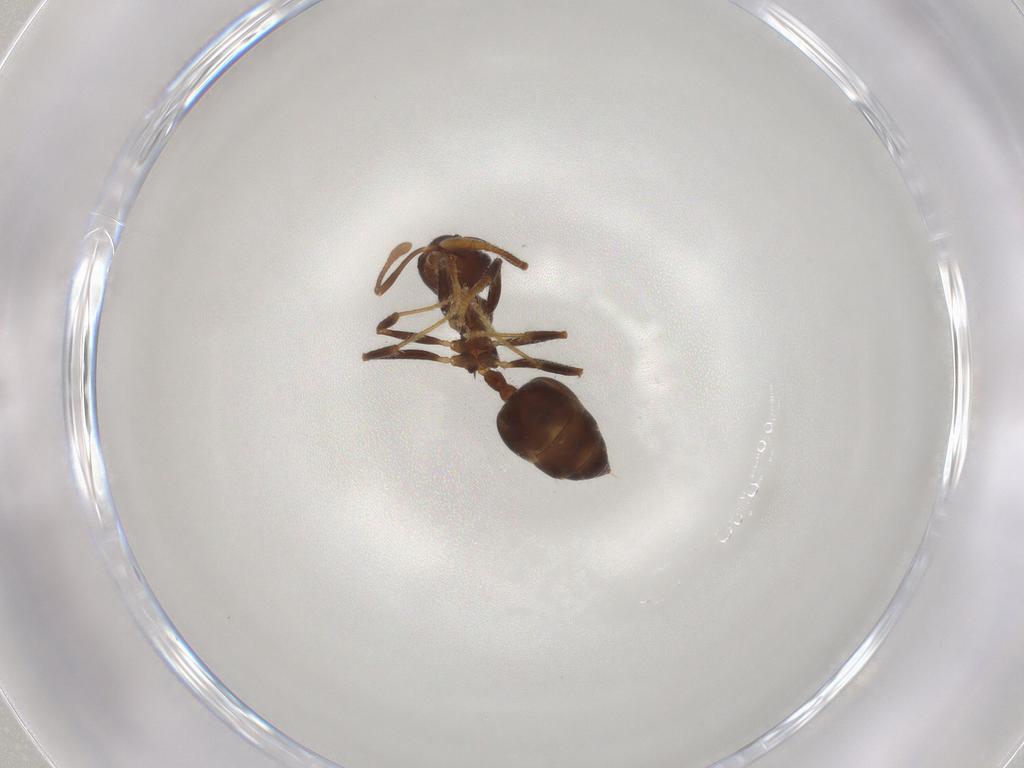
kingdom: Animalia
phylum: Arthropoda
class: Insecta
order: Hymenoptera
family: Formicidae
